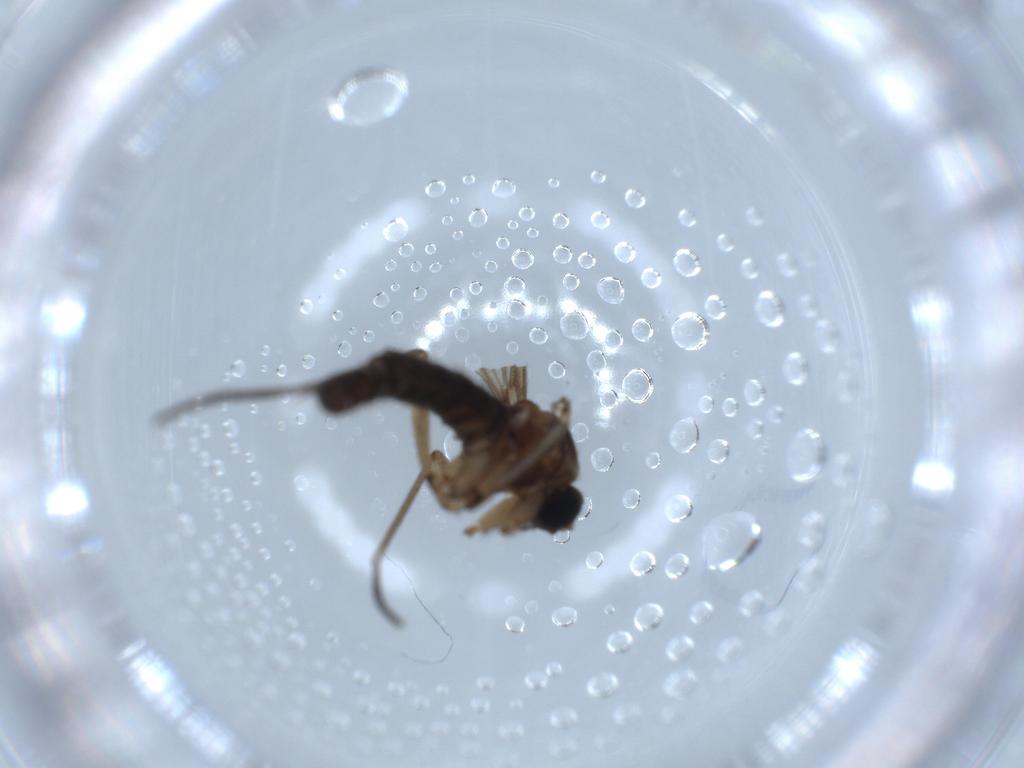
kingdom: Animalia
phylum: Arthropoda
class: Insecta
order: Diptera
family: Sciaridae
